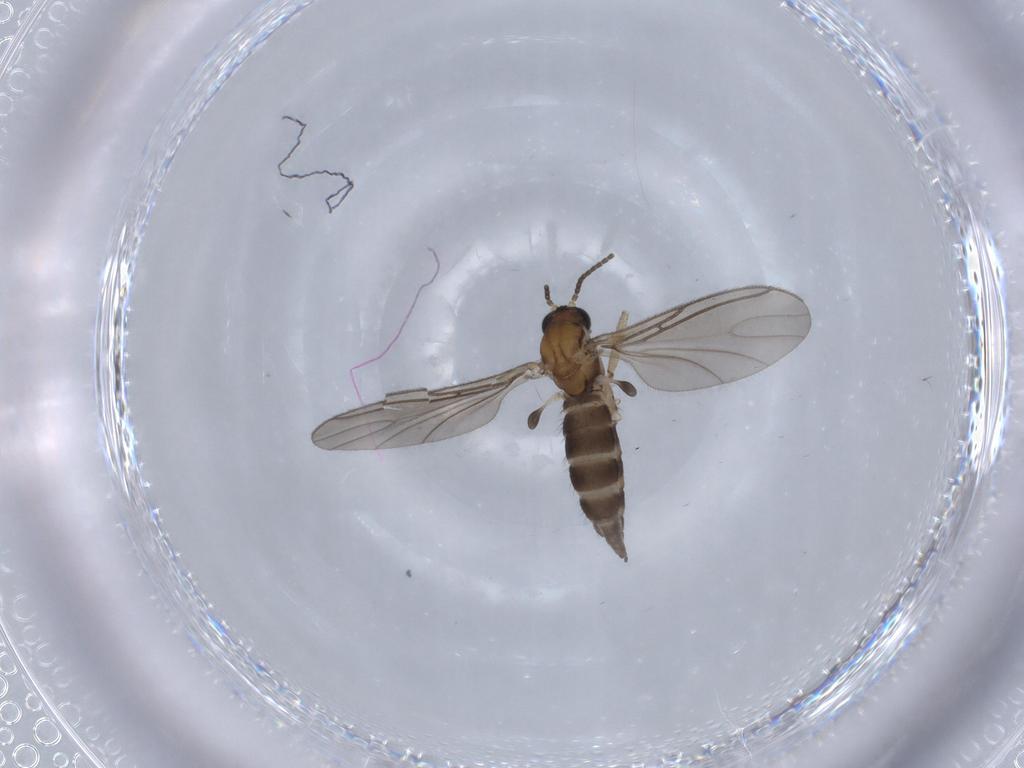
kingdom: Animalia
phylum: Arthropoda
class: Insecta
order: Diptera
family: Sciaridae
